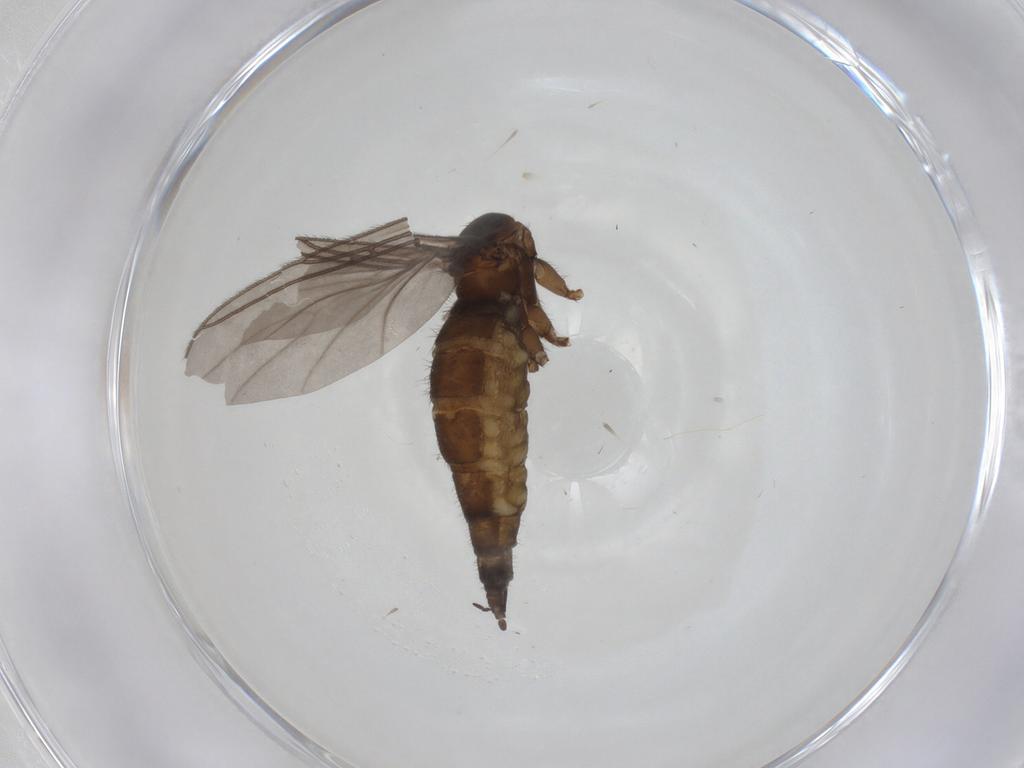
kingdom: Animalia
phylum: Arthropoda
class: Insecta
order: Diptera
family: Sciaridae
